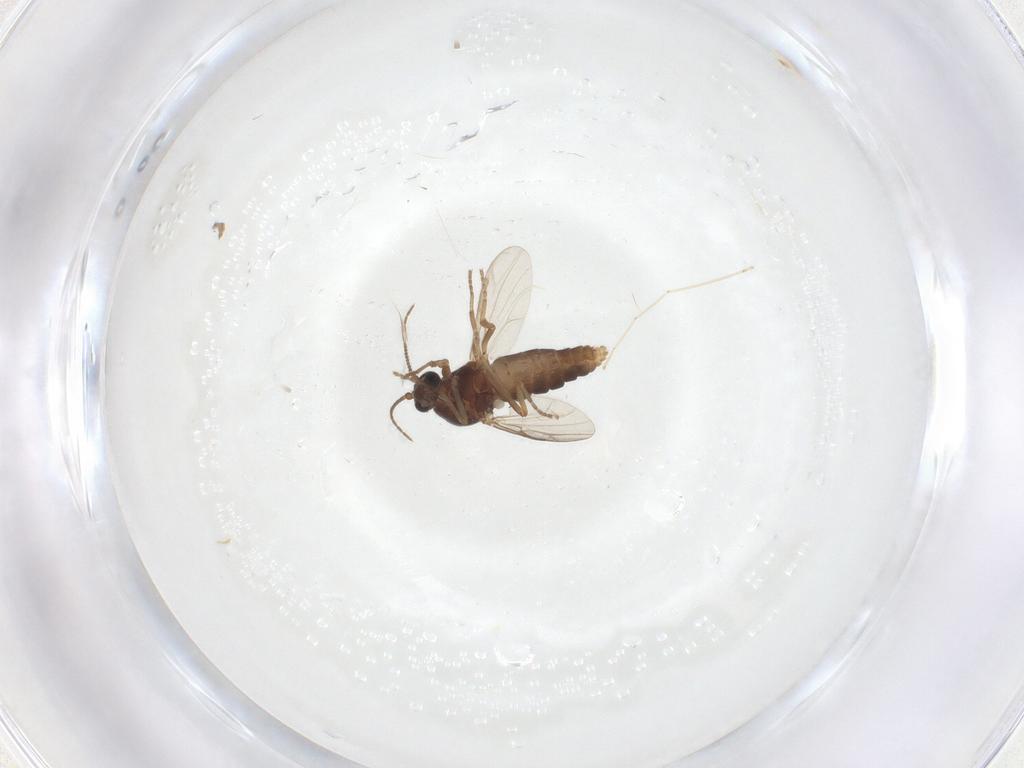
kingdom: Animalia
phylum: Arthropoda
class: Insecta
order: Diptera
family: Ceratopogonidae
